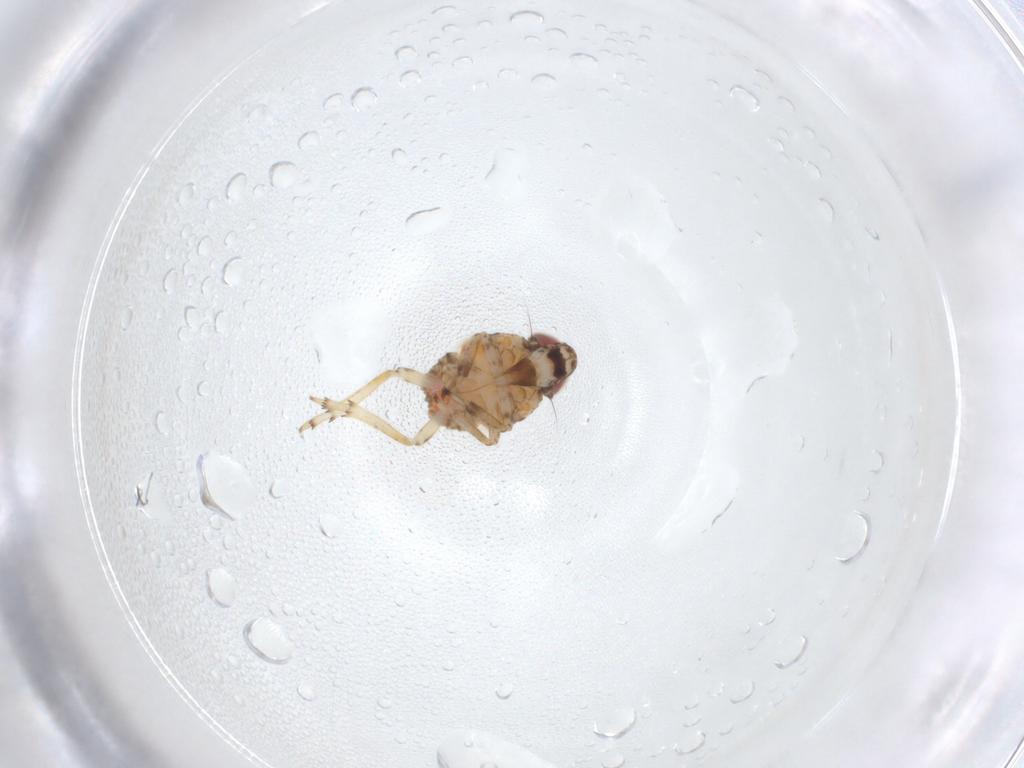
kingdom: Animalia
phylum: Arthropoda
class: Insecta
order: Hemiptera
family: Issidae
